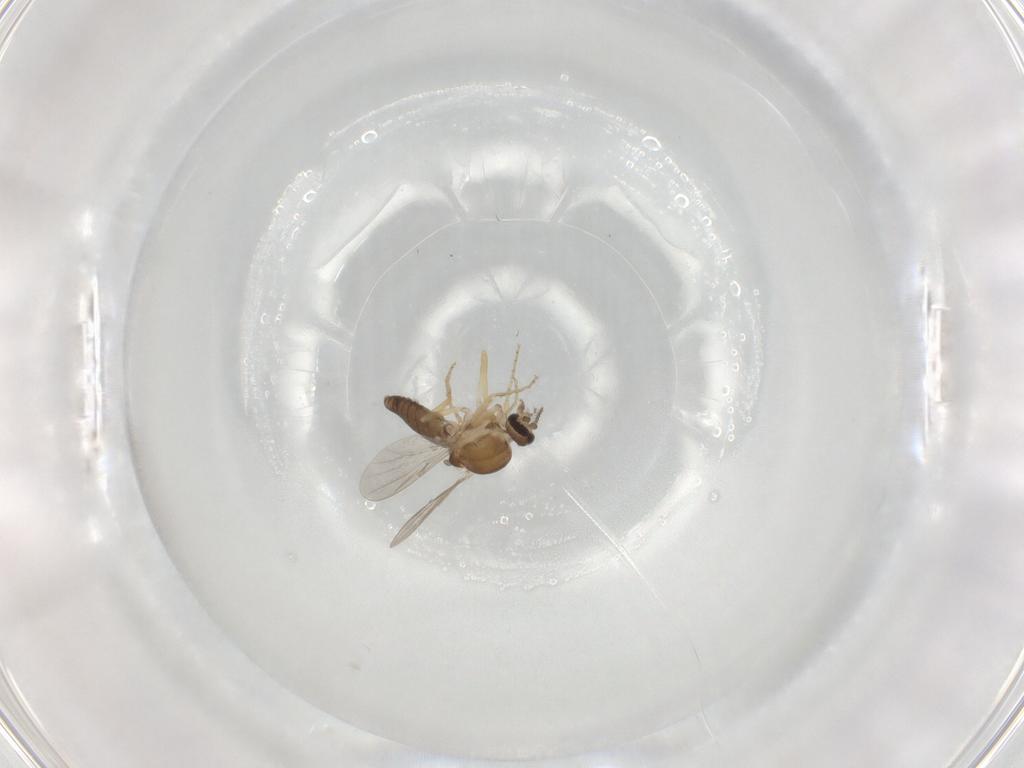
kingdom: Animalia
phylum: Arthropoda
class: Insecta
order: Diptera
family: Ceratopogonidae
